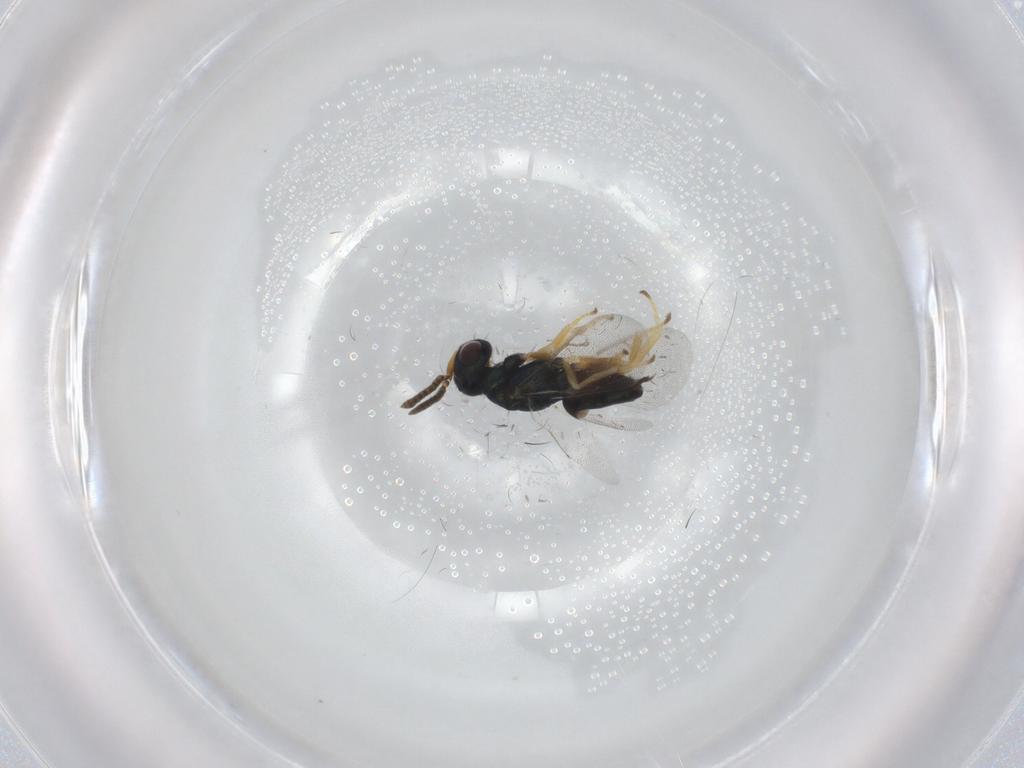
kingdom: Animalia
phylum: Arthropoda
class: Insecta
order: Hymenoptera
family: Pteromalidae
